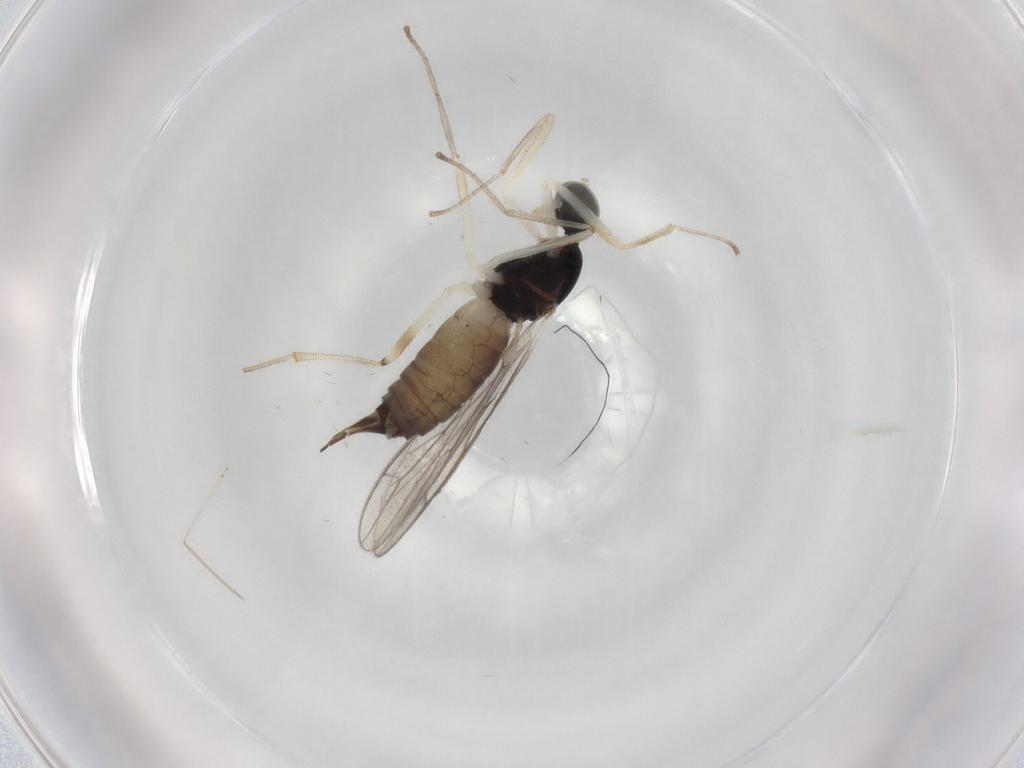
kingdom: Animalia
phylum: Arthropoda
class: Insecta
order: Diptera
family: Empididae
